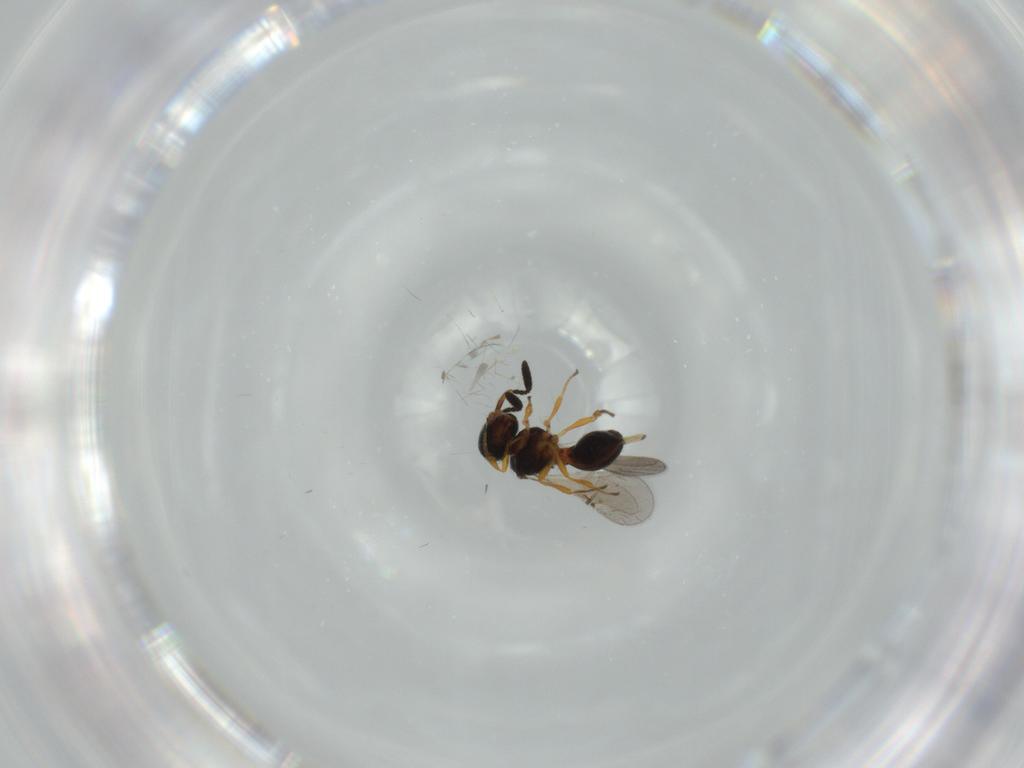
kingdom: Animalia
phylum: Arthropoda
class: Insecta
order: Hymenoptera
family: Scelionidae
